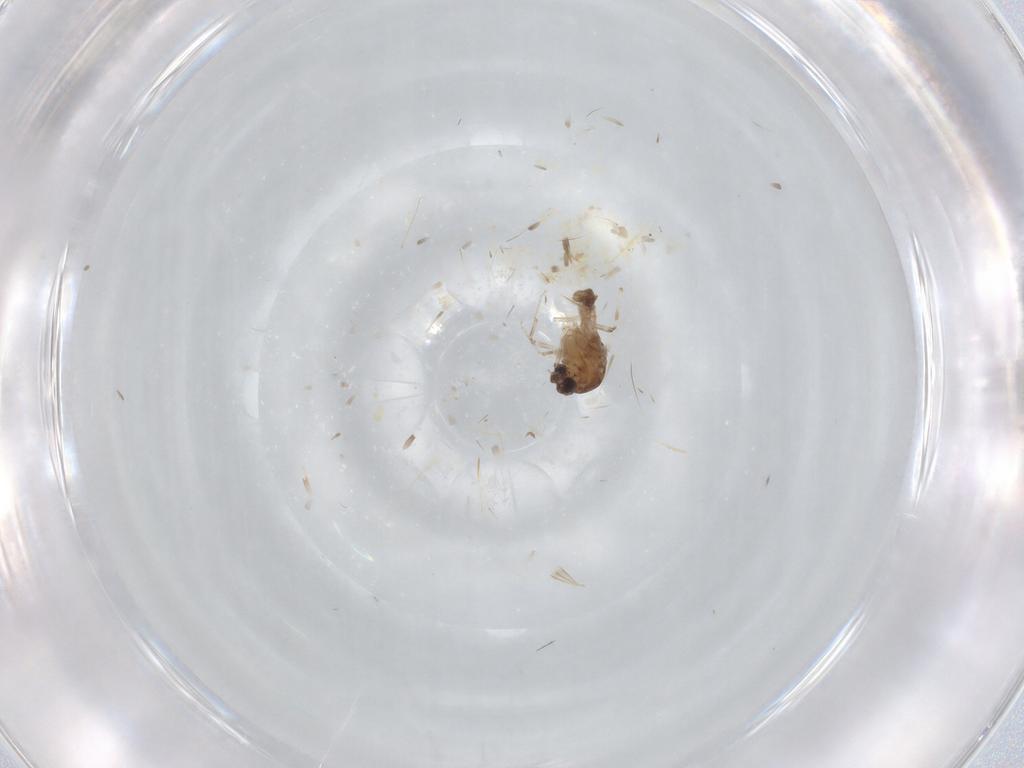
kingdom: Animalia
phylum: Arthropoda
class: Insecta
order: Diptera
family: Ceratopogonidae
